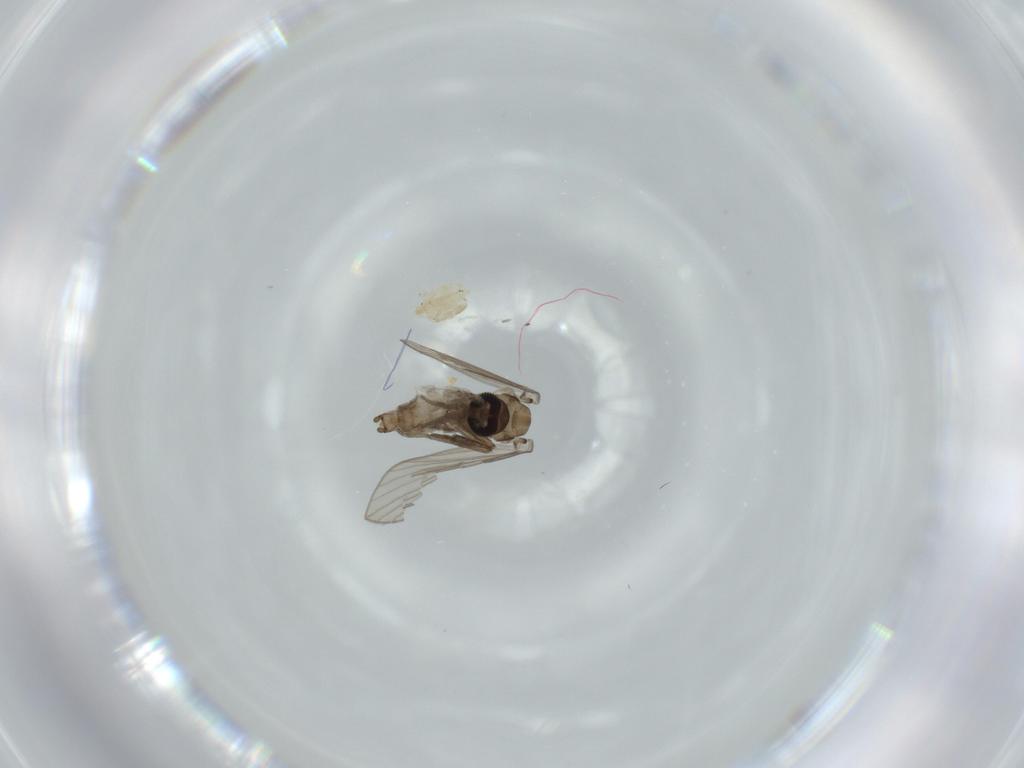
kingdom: Animalia
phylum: Arthropoda
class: Insecta
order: Diptera
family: Psychodidae
